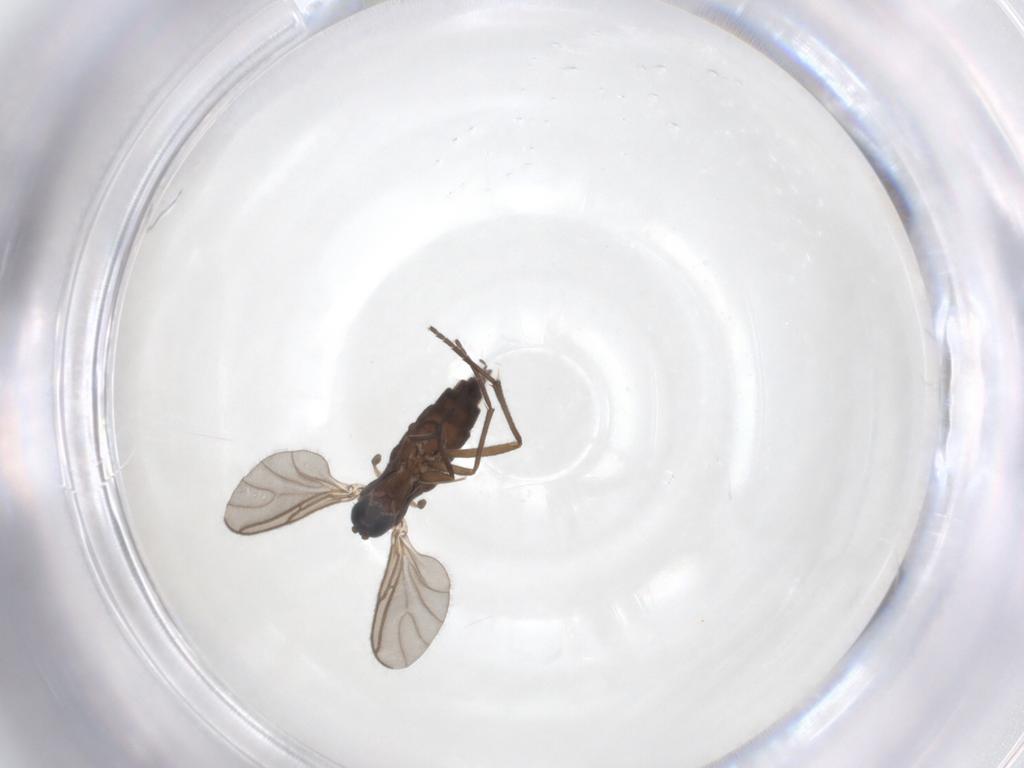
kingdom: Animalia
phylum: Arthropoda
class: Insecta
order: Diptera
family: Sciaridae
